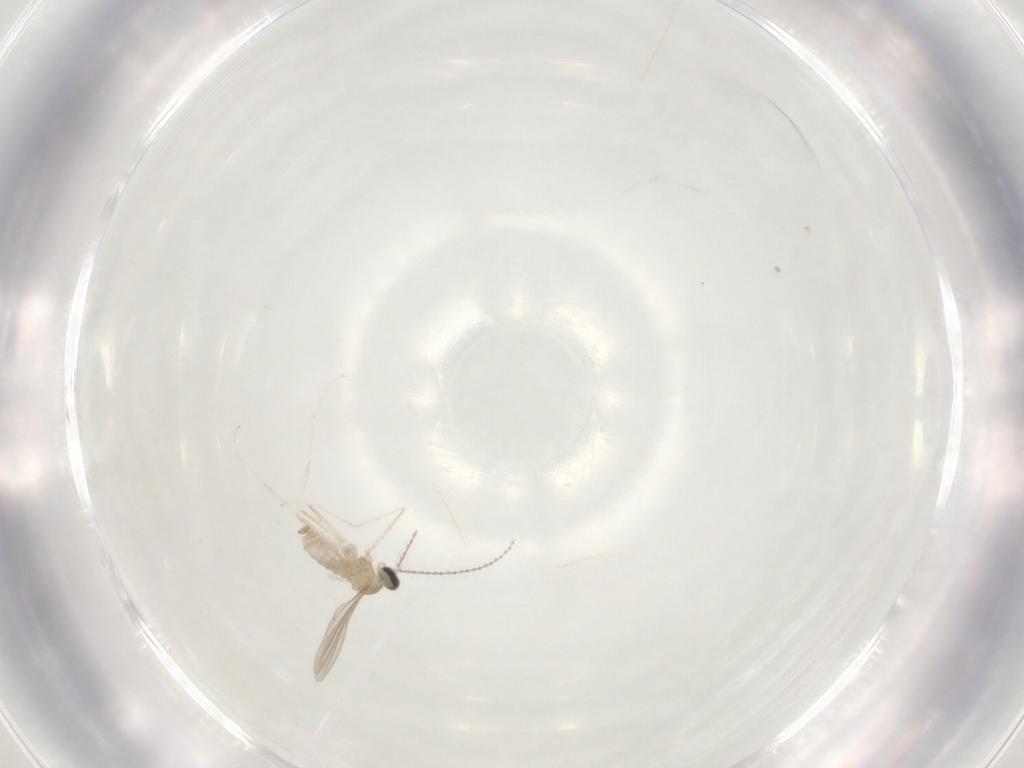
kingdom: Animalia
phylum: Arthropoda
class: Insecta
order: Diptera
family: Cecidomyiidae
